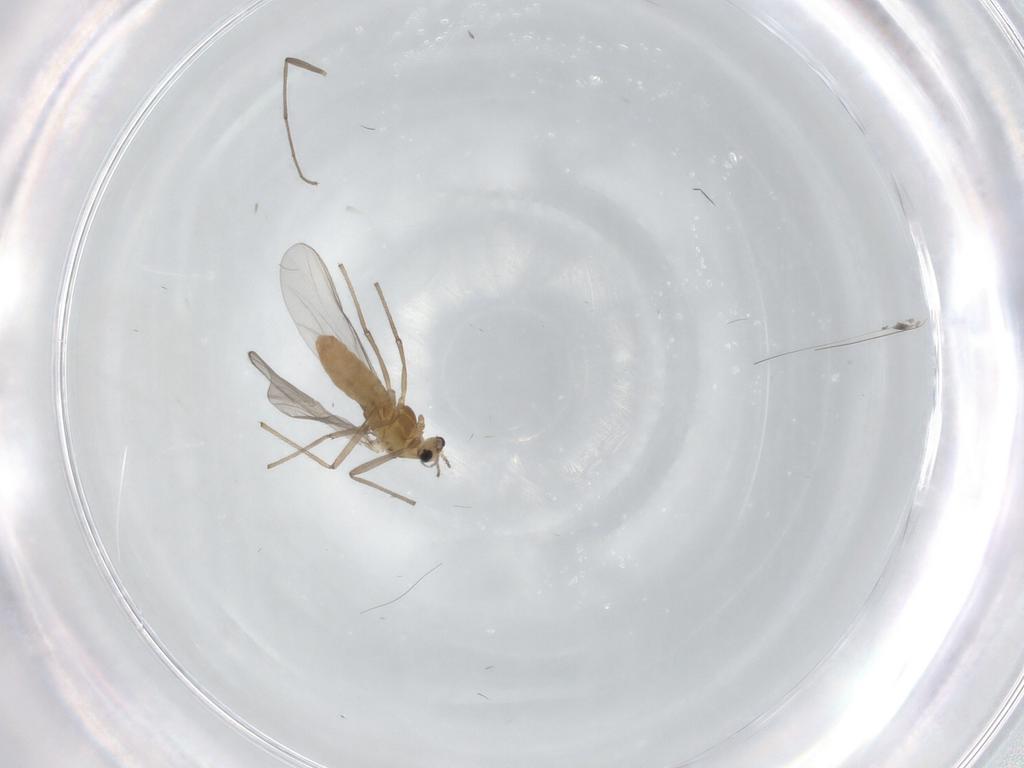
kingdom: Animalia
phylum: Arthropoda
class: Insecta
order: Diptera
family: Chironomidae
